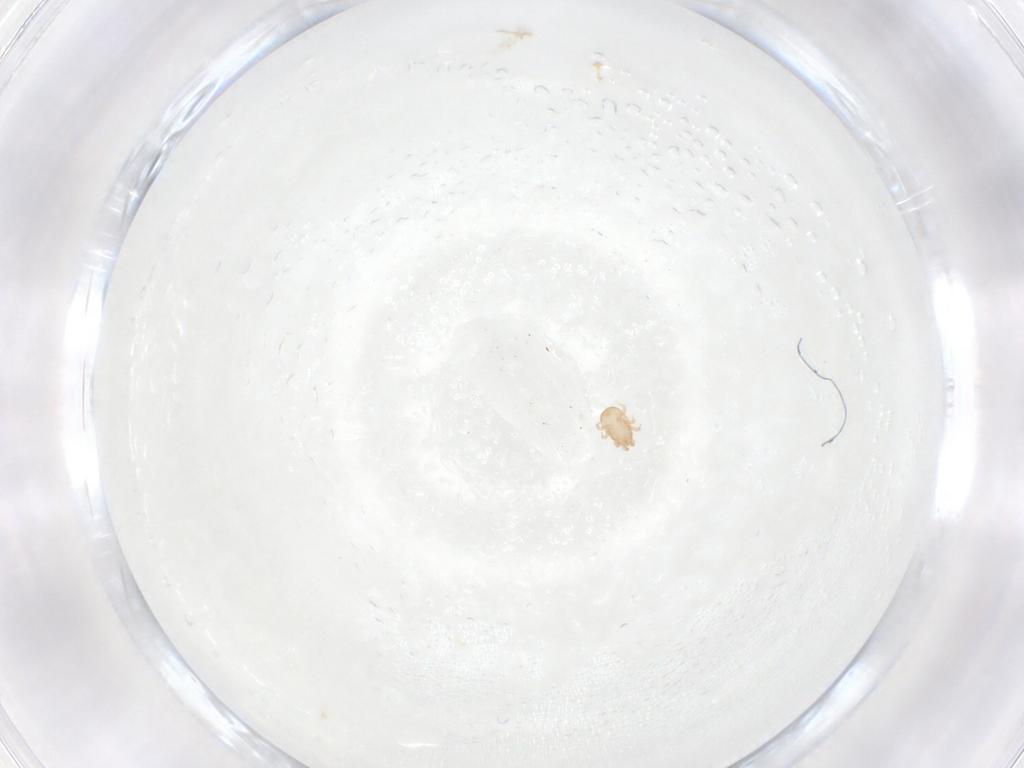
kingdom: Animalia
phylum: Arthropoda
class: Arachnida
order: Mesostigmata
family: Ascidae
